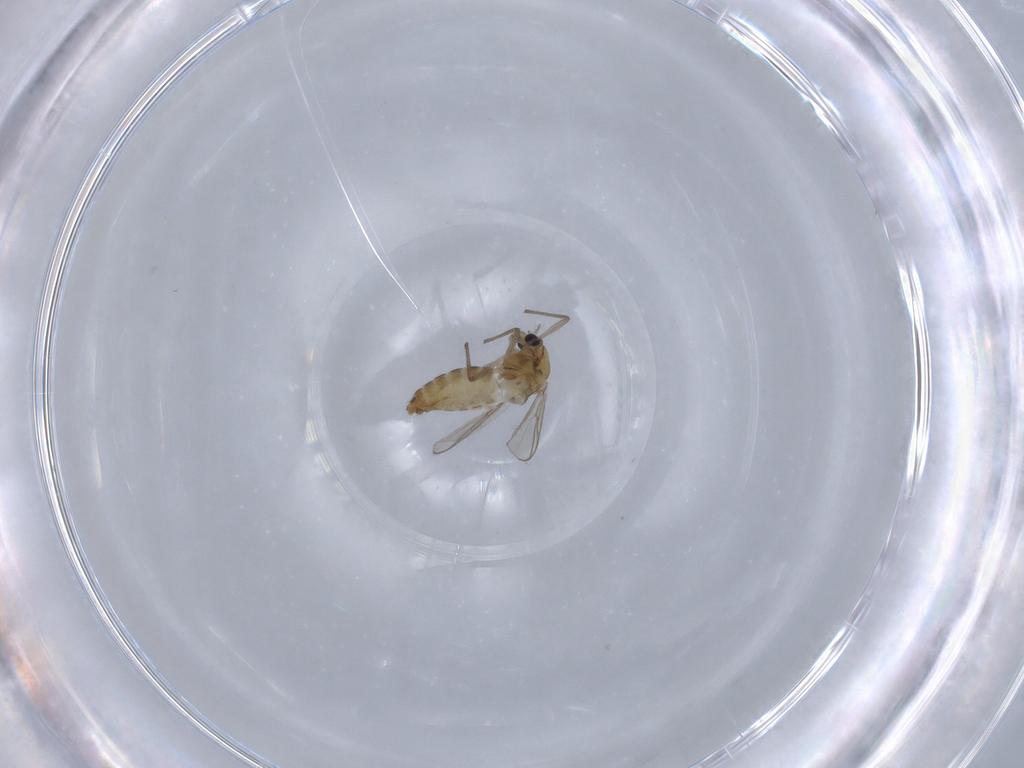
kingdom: Animalia
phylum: Arthropoda
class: Insecta
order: Diptera
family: Chironomidae
